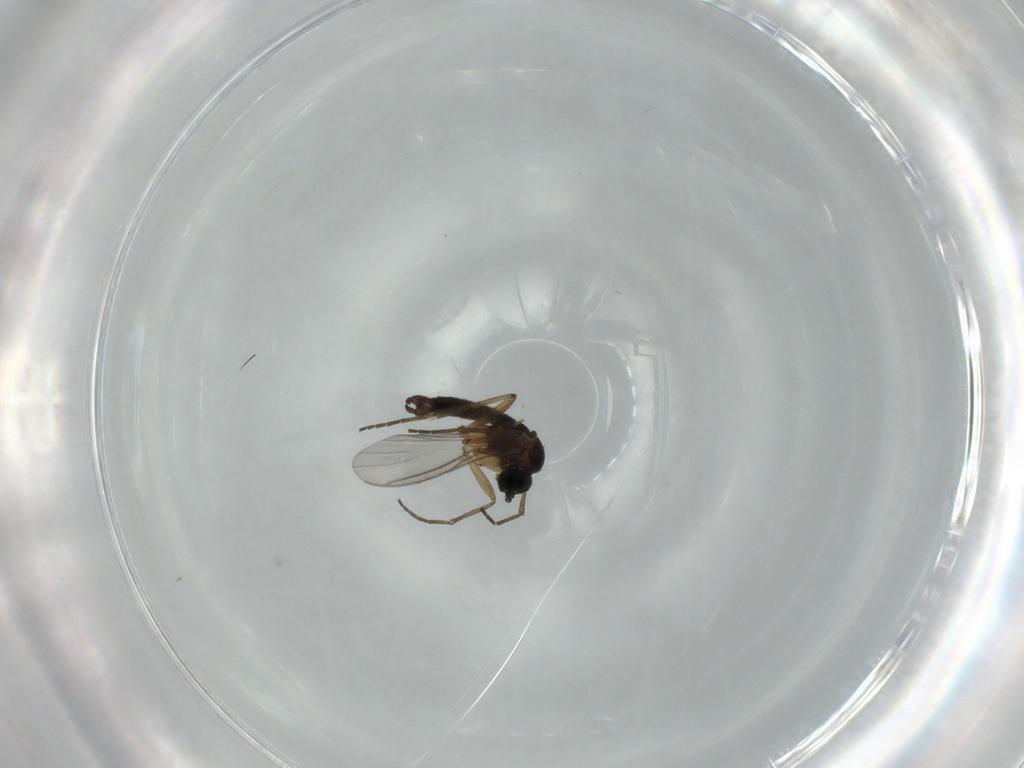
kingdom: Animalia
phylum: Arthropoda
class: Insecta
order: Diptera
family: Sciaridae
